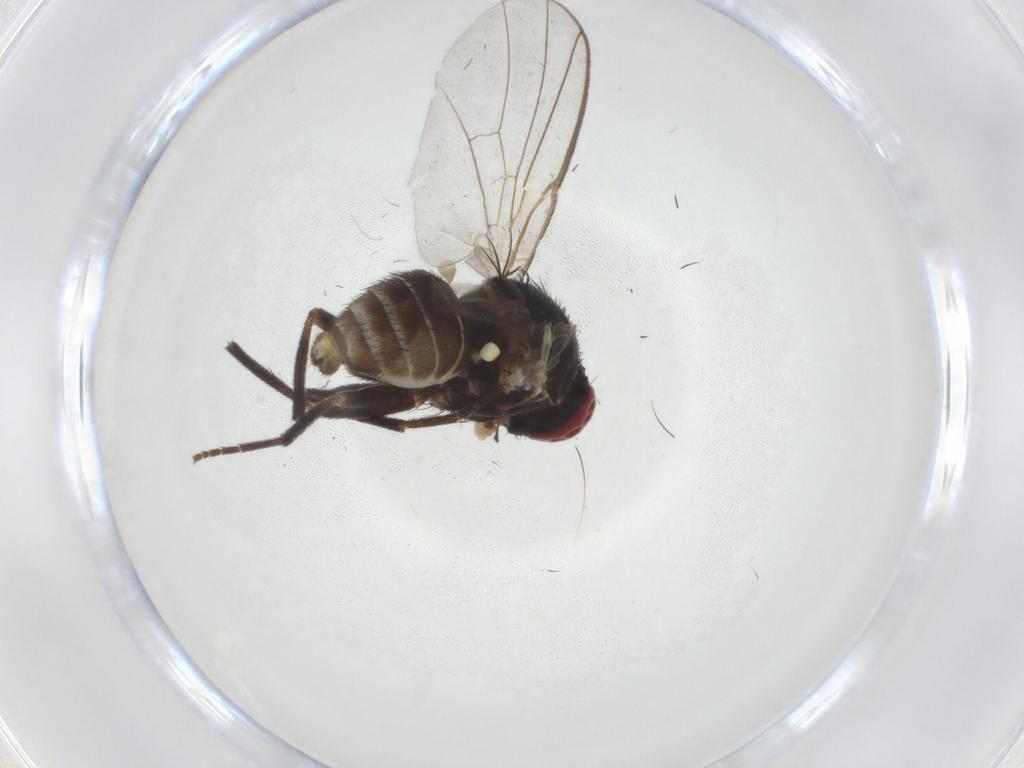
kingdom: Animalia
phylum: Arthropoda
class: Insecta
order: Diptera
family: Agromyzidae
